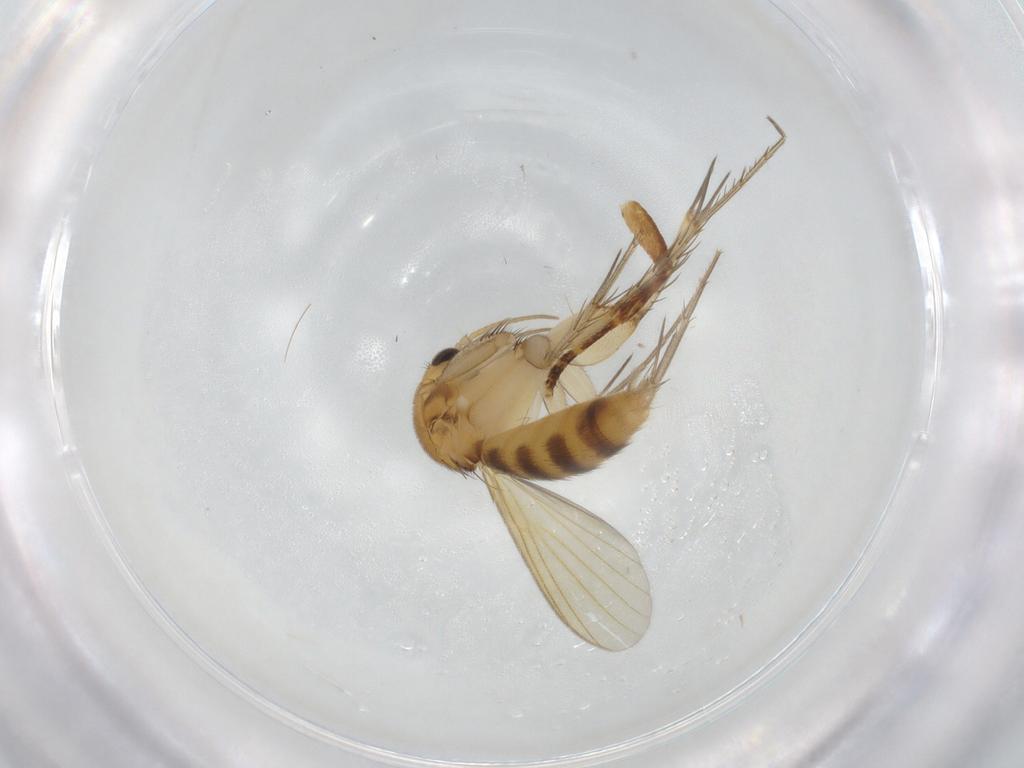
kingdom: Animalia
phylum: Arthropoda
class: Insecta
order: Diptera
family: Mycetophilidae
